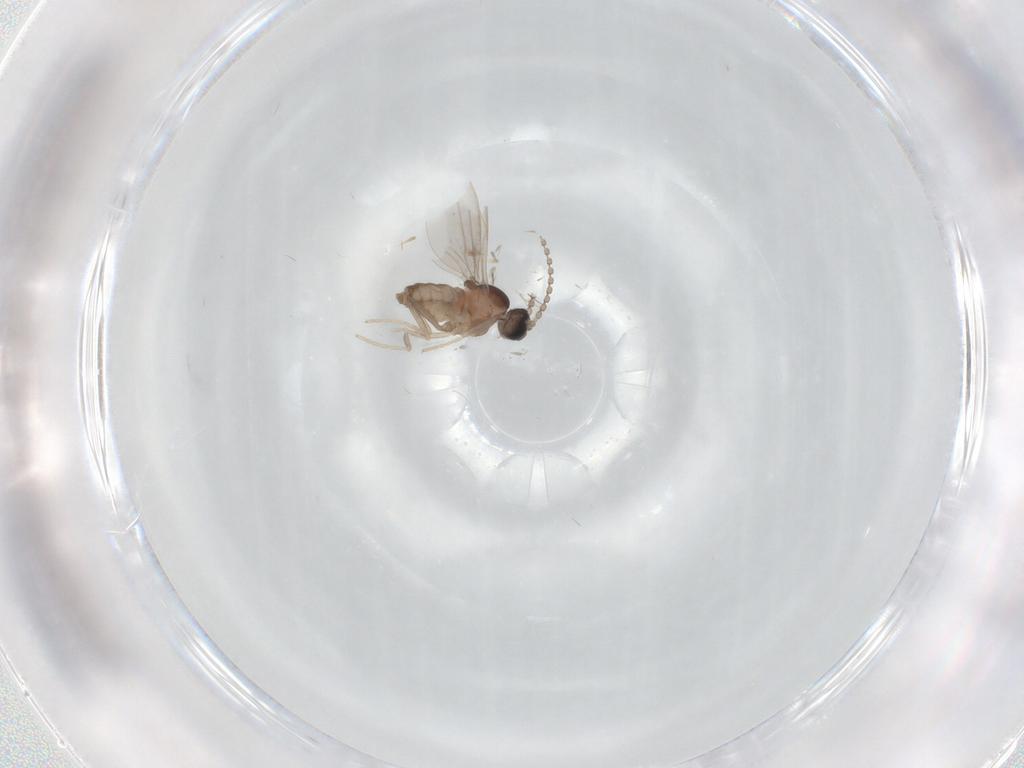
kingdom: Animalia
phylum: Arthropoda
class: Insecta
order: Diptera
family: Cecidomyiidae
